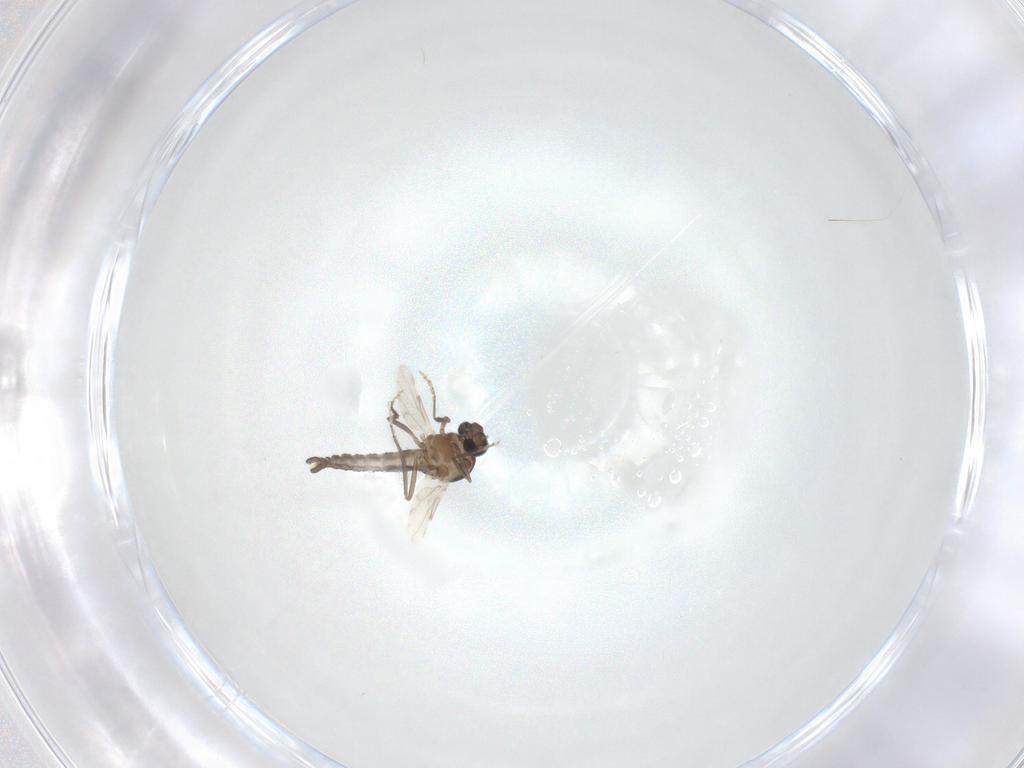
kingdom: Animalia
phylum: Arthropoda
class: Insecta
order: Diptera
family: Ceratopogonidae
